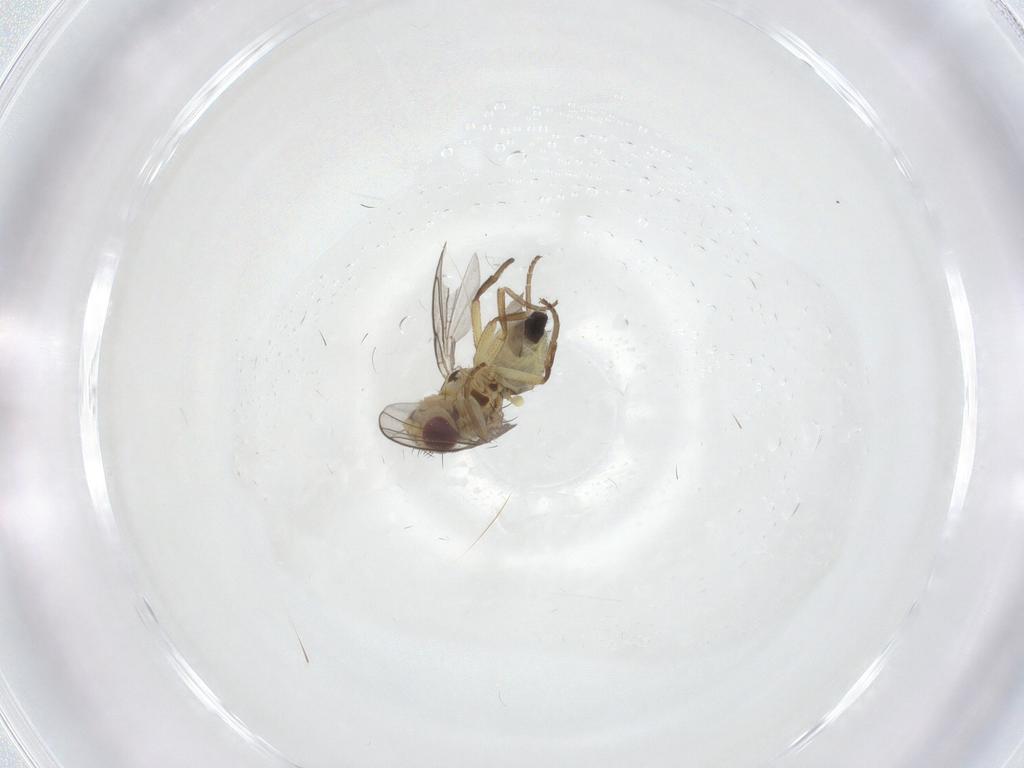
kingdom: Animalia
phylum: Arthropoda
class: Insecta
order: Diptera
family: Agromyzidae
